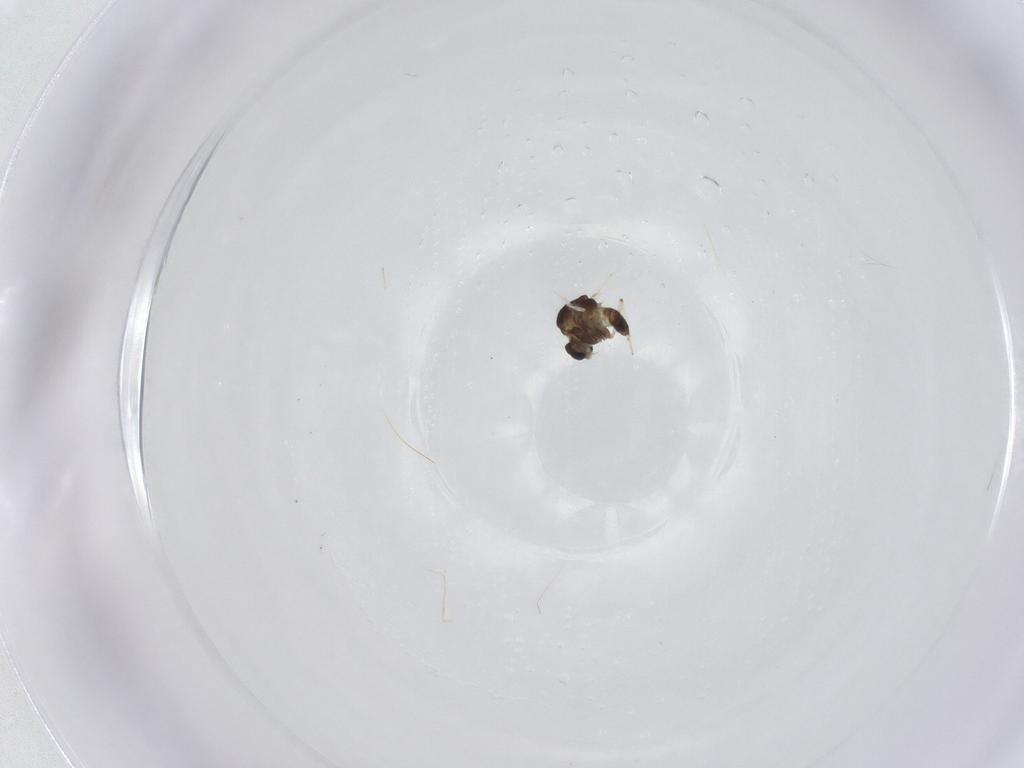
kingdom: Animalia
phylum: Arthropoda
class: Insecta
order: Diptera
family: Chironomidae
